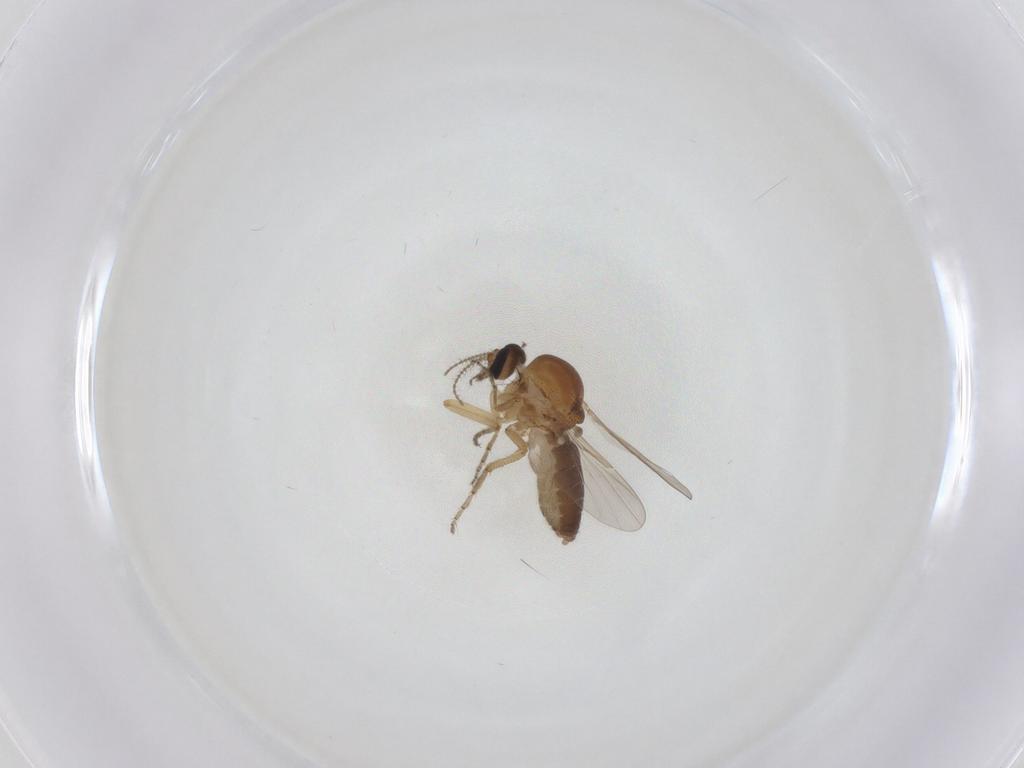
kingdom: Animalia
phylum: Arthropoda
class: Insecta
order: Diptera
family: Ceratopogonidae
